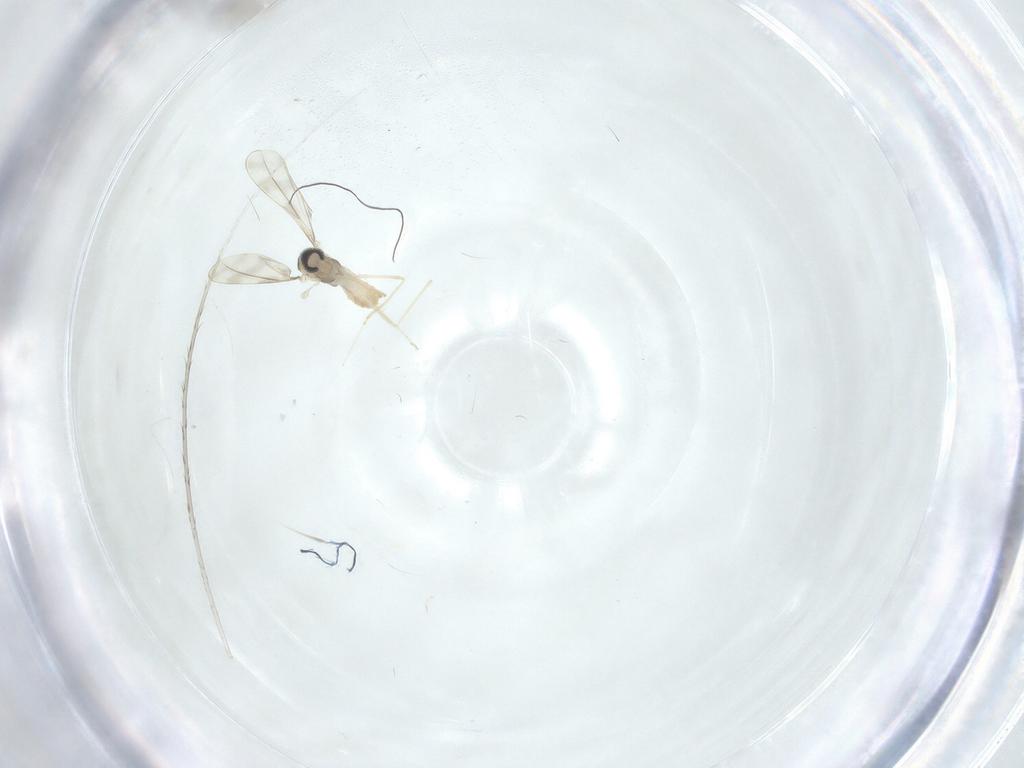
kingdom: Animalia
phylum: Arthropoda
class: Insecta
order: Diptera
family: Chironomidae
